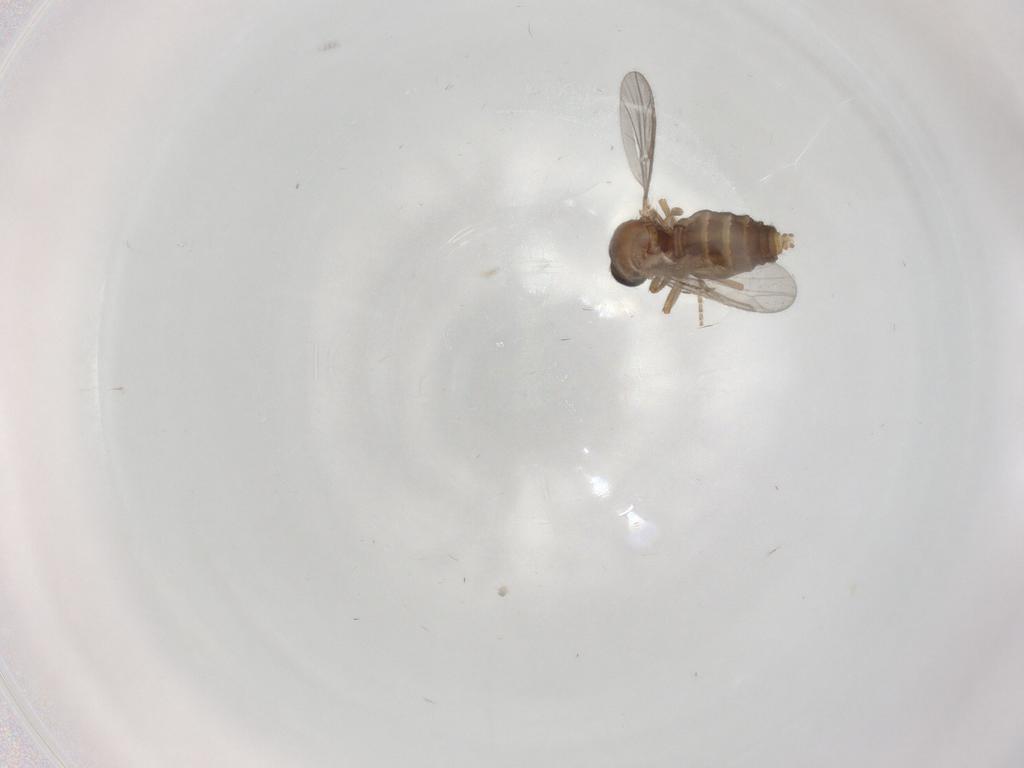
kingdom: Animalia
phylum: Arthropoda
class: Insecta
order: Diptera
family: Ceratopogonidae
